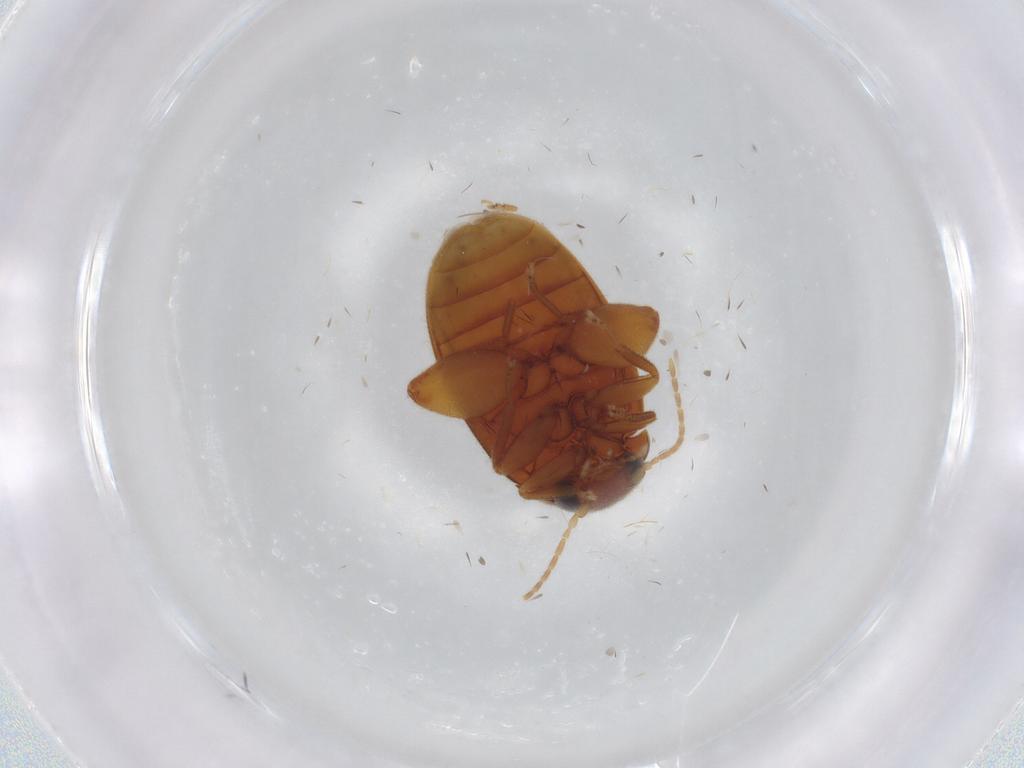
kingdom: Animalia
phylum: Arthropoda
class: Insecta
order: Coleoptera
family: Scirtidae
